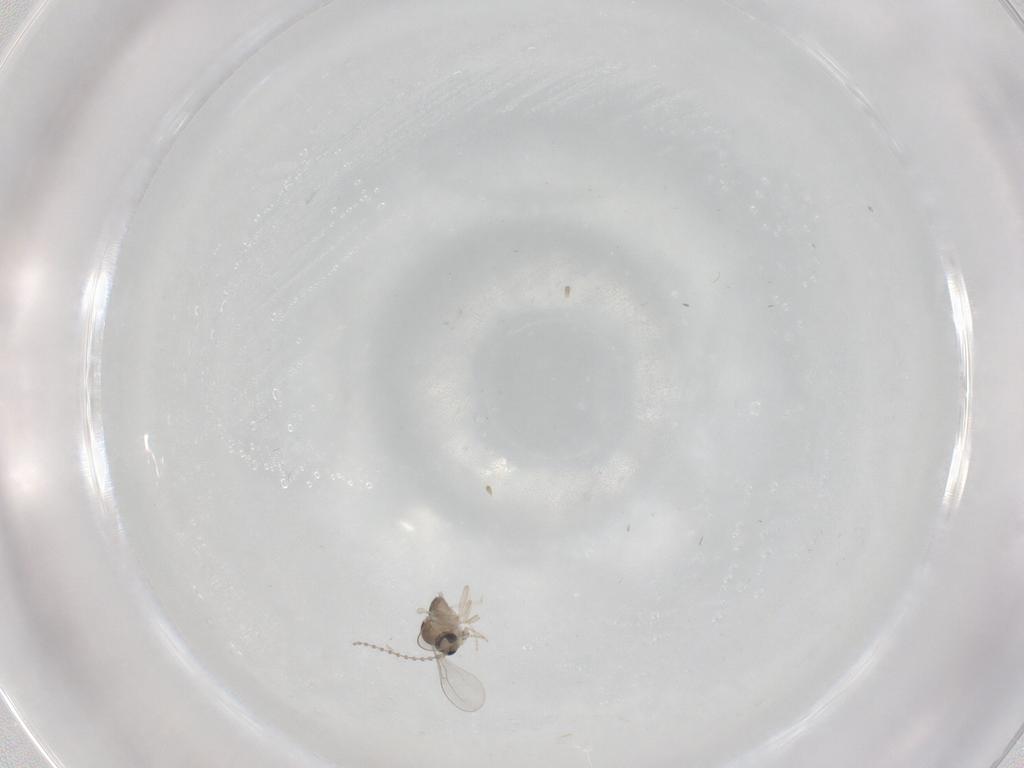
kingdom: Animalia
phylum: Arthropoda
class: Insecta
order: Diptera
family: Cecidomyiidae
